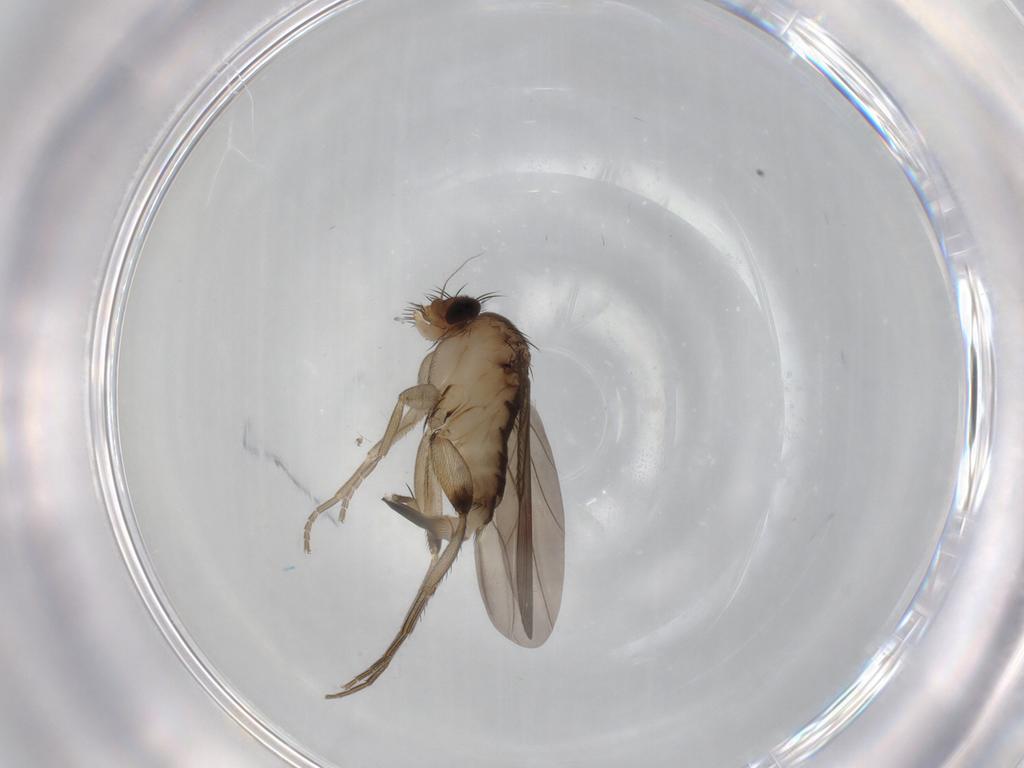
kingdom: Animalia
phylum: Arthropoda
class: Insecta
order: Diptera
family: Phoridae
